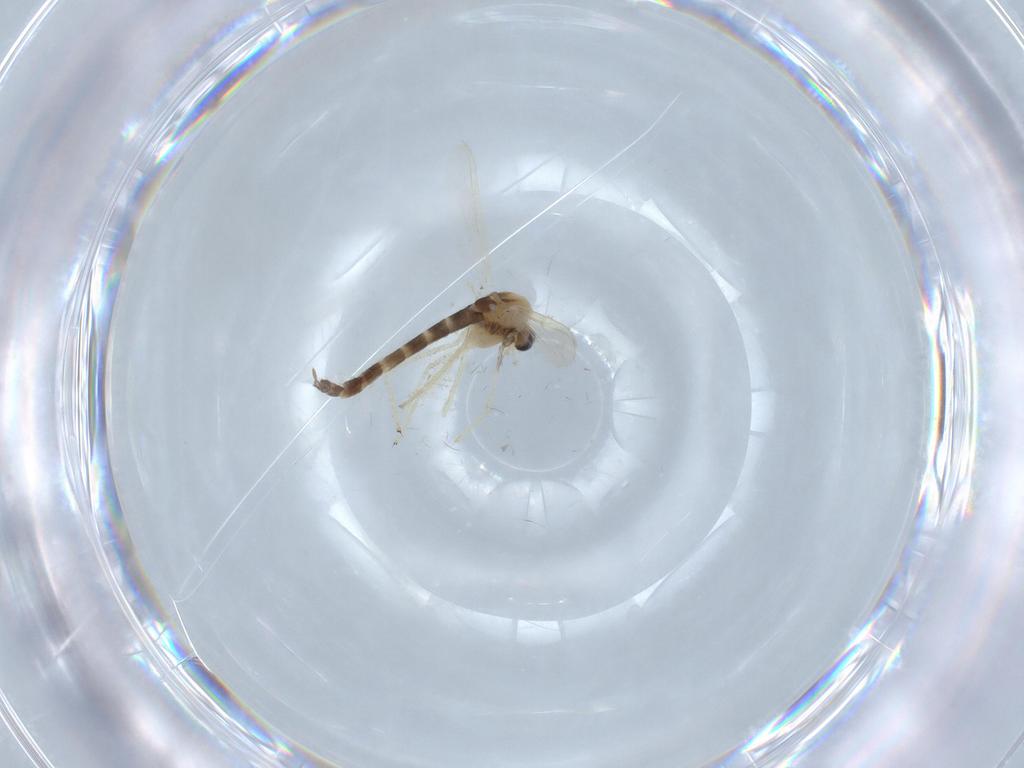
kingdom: Animalia
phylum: Arthropoda
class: Insecta
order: Diptera
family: Chironomidae
